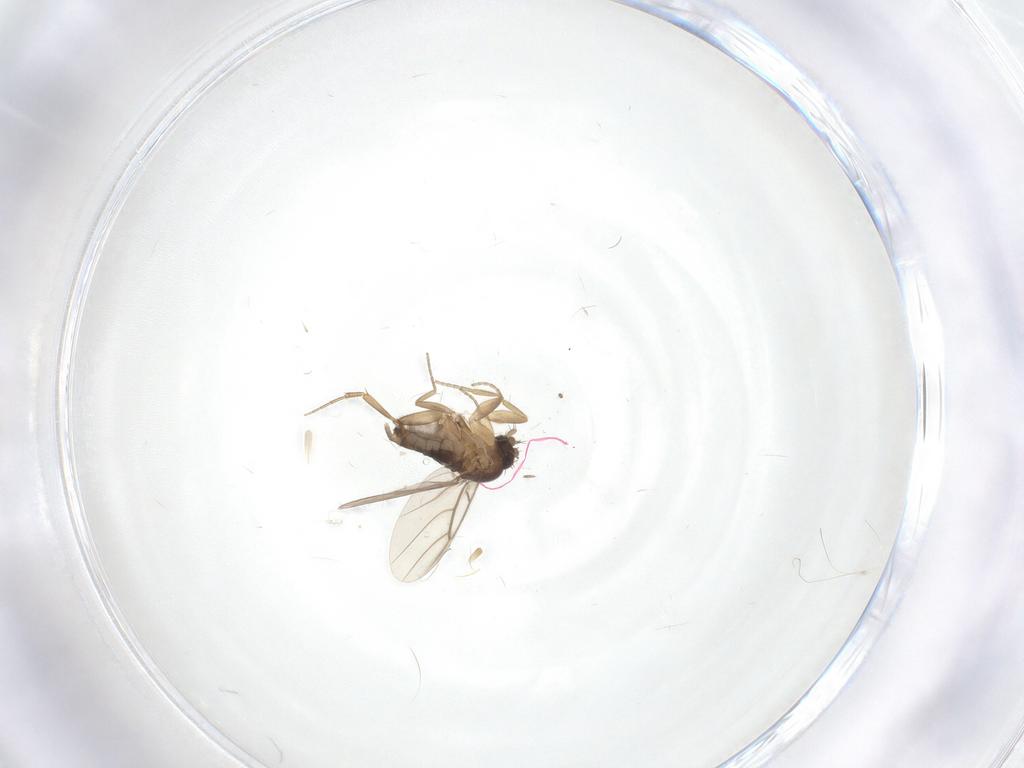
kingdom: Animalia
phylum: Arthropoda
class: Insecta
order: Diptera
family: Phoridae
